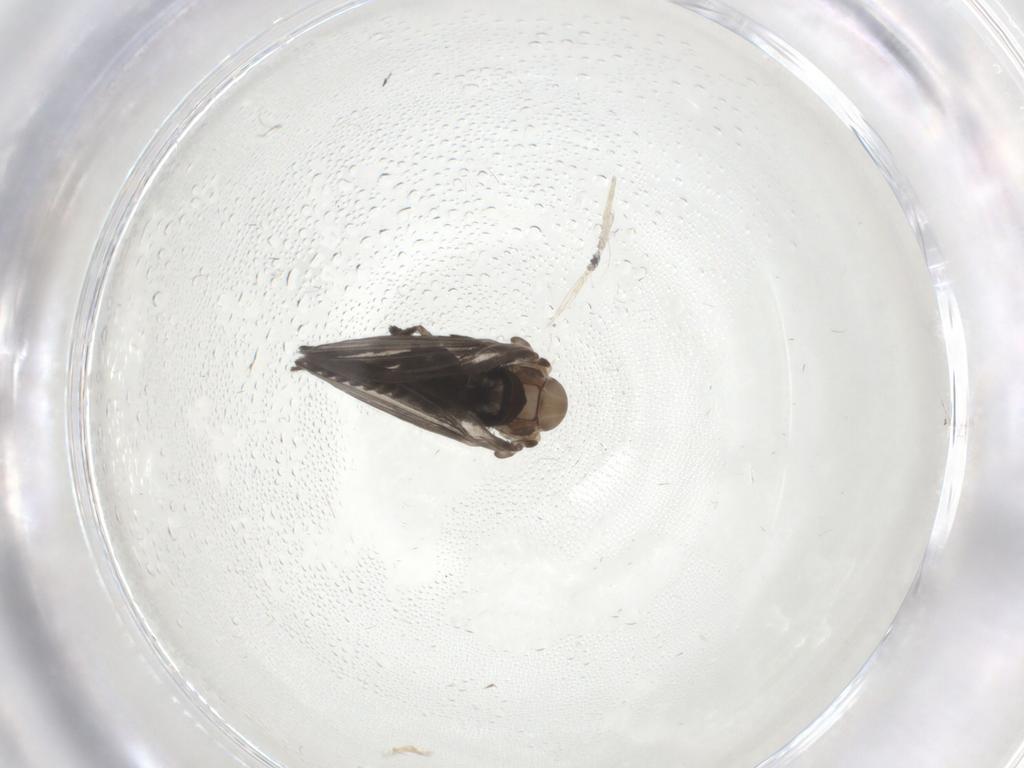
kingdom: Animalia
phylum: Arthropoda
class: Insecta
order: Diptera
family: Psychodidae
